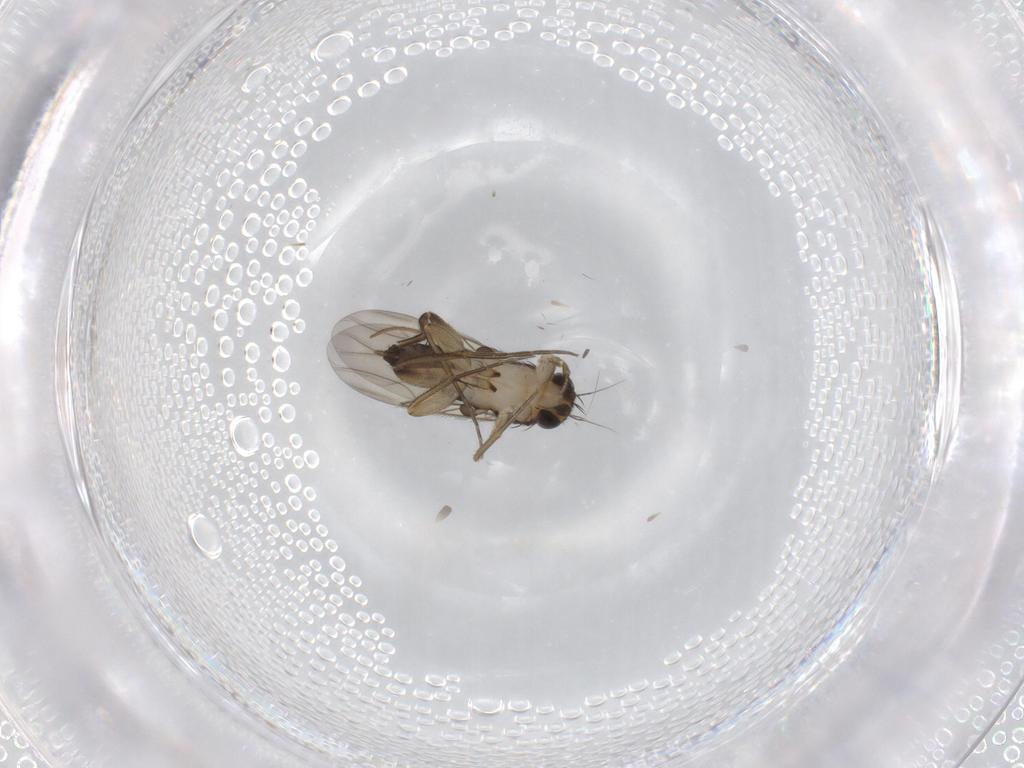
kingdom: Animalia
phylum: Arthropoda
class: Insecta
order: Diptera
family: Phoridae
